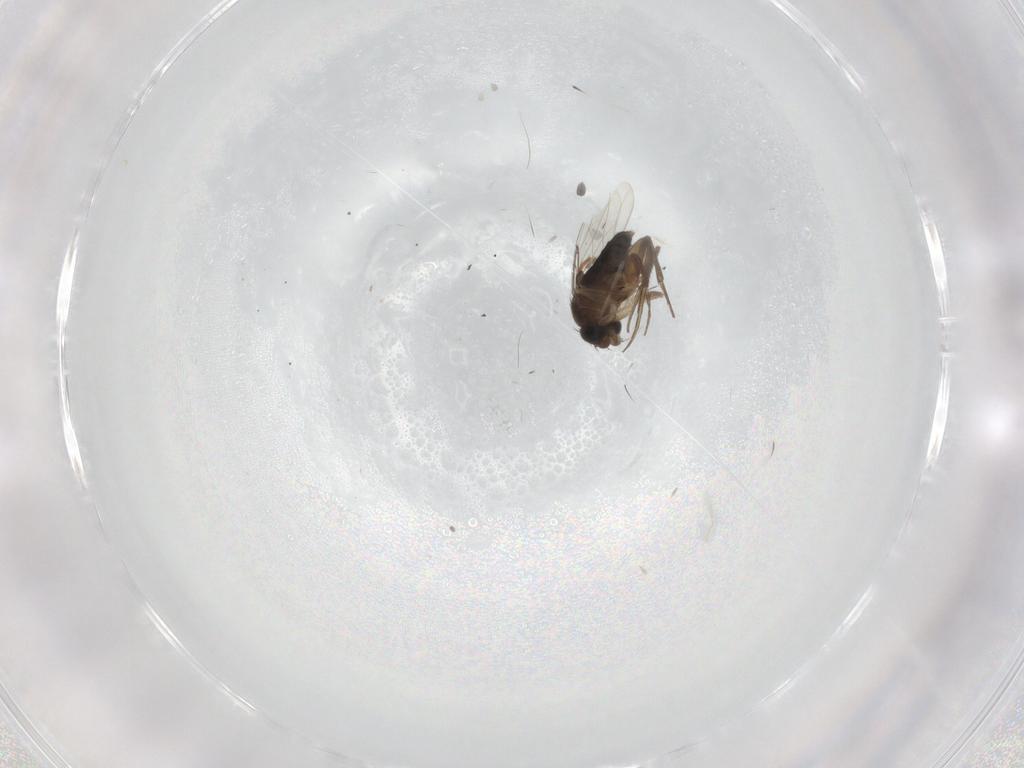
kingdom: Animalia
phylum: Arthropoda
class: Insecta
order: Diptera
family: Phoridae
